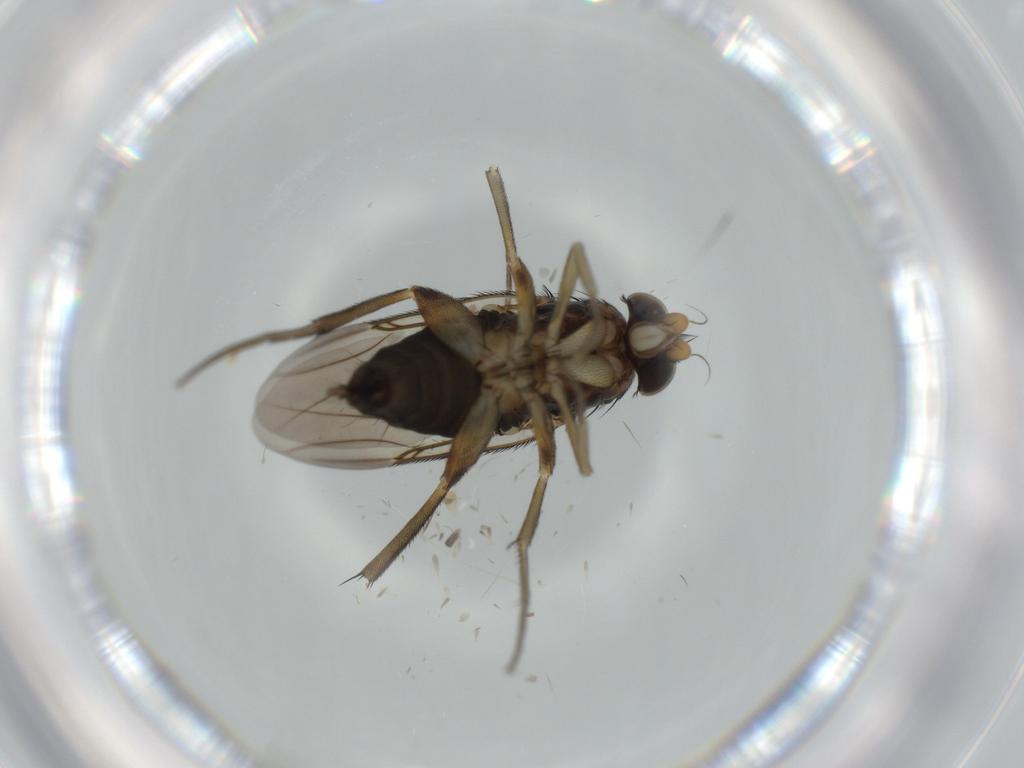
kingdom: Animalia
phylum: Arthropoda
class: Insecta
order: Diptera
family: Phoridae
